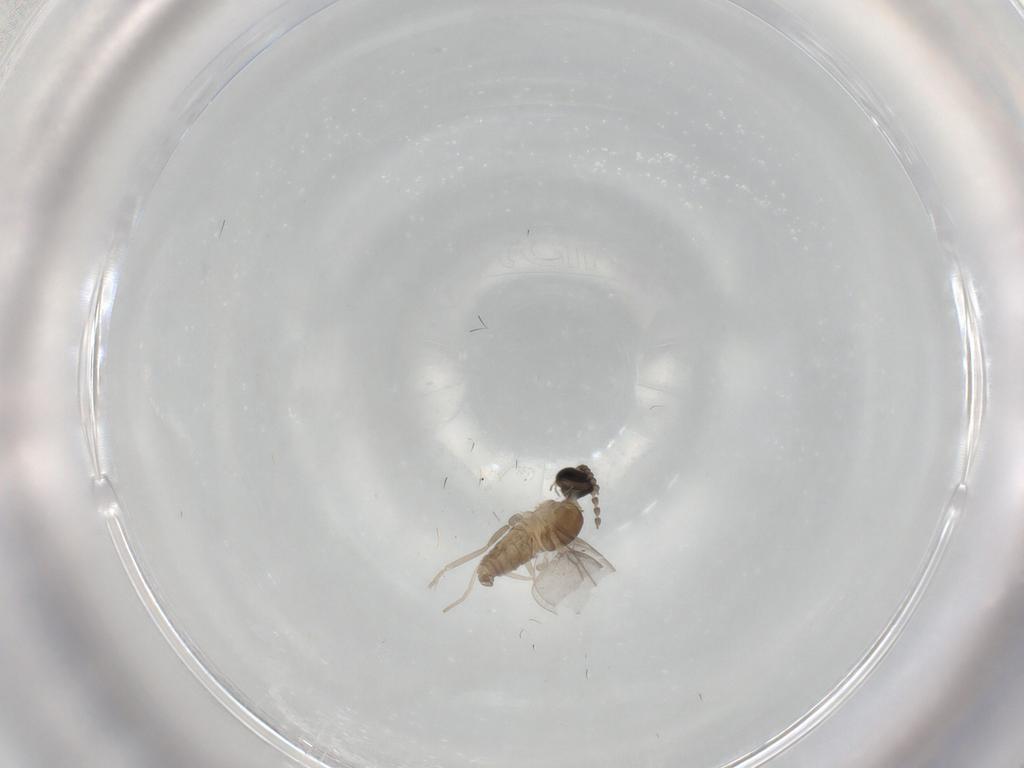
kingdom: Animalia
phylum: Arthropoda
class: Insecta
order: Diptera
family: Cecidomyiidae
